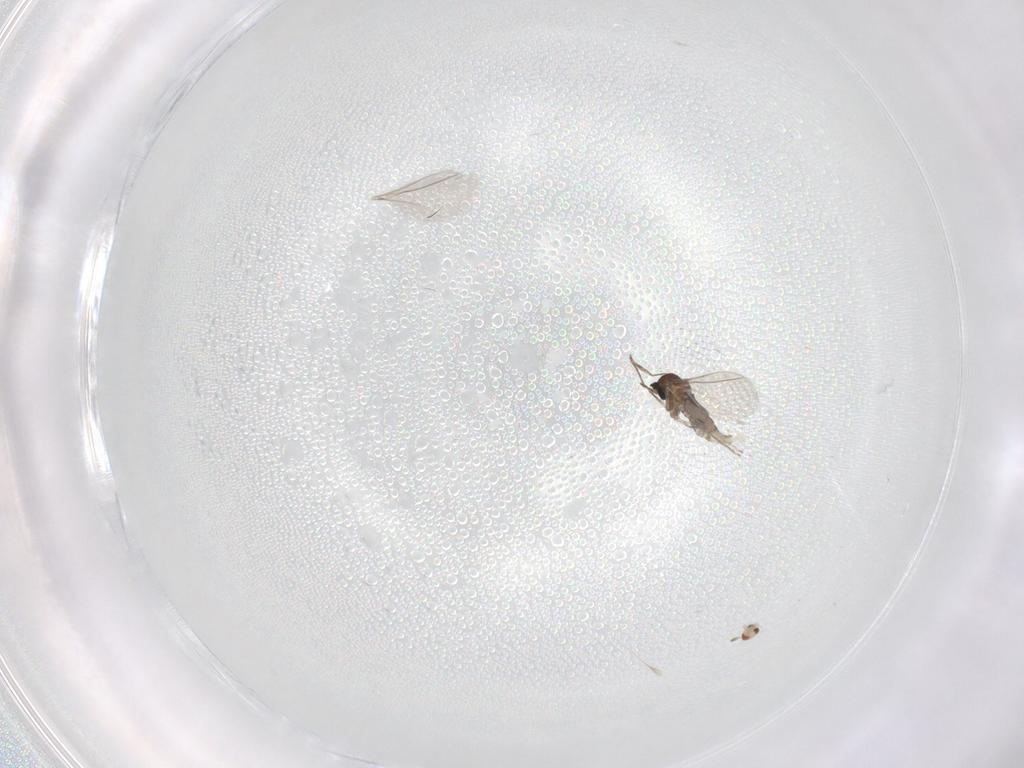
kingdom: Animalia
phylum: Arthropoda
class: Insecta
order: Diptera
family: Cecidomyiidae
